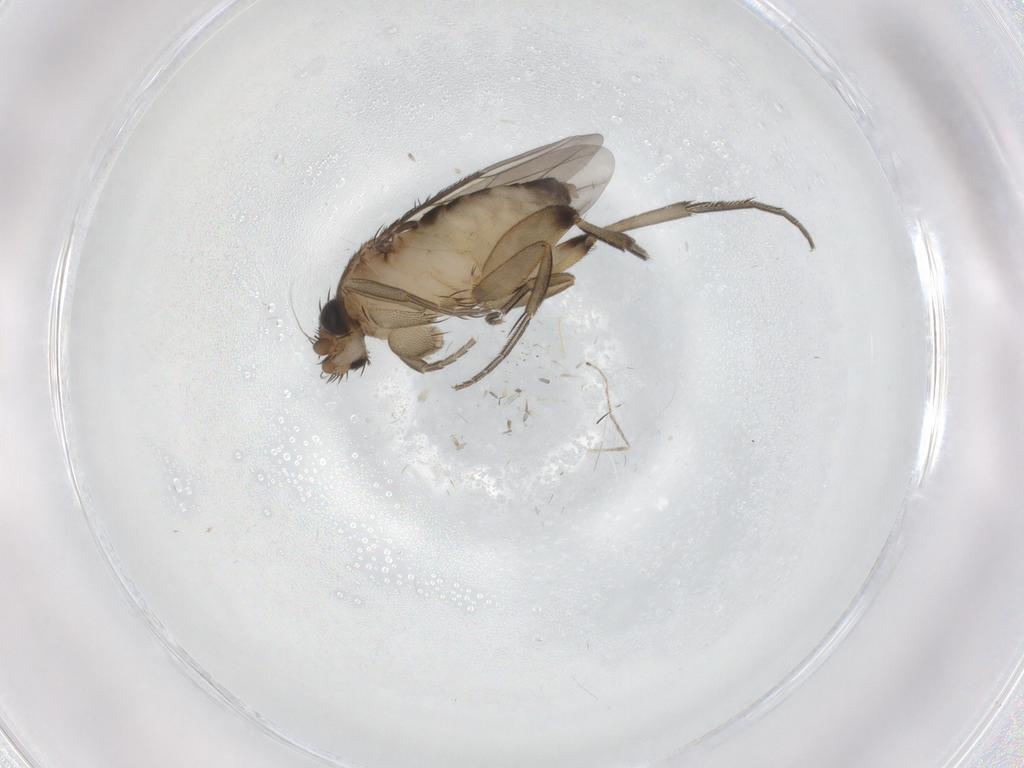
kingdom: Animalia
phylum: Arthropoda
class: Insecta
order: Diptera
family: Phoridae
